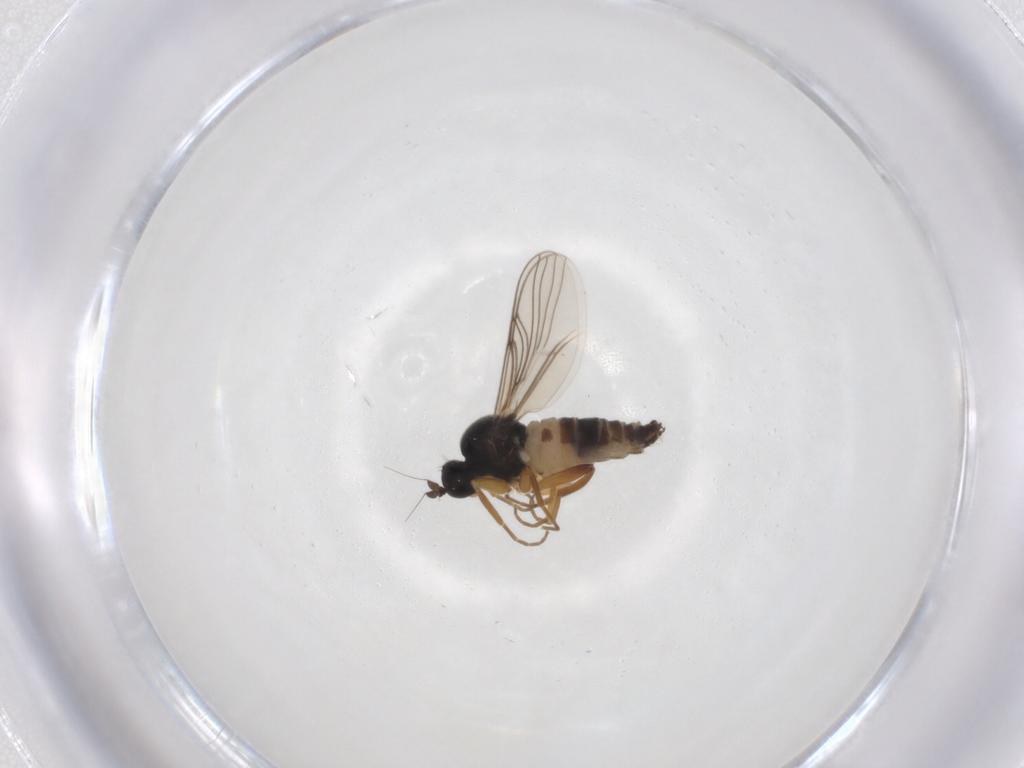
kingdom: Animalia
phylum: Arthropoda
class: Insecta
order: Diptera
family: Hybotidae
